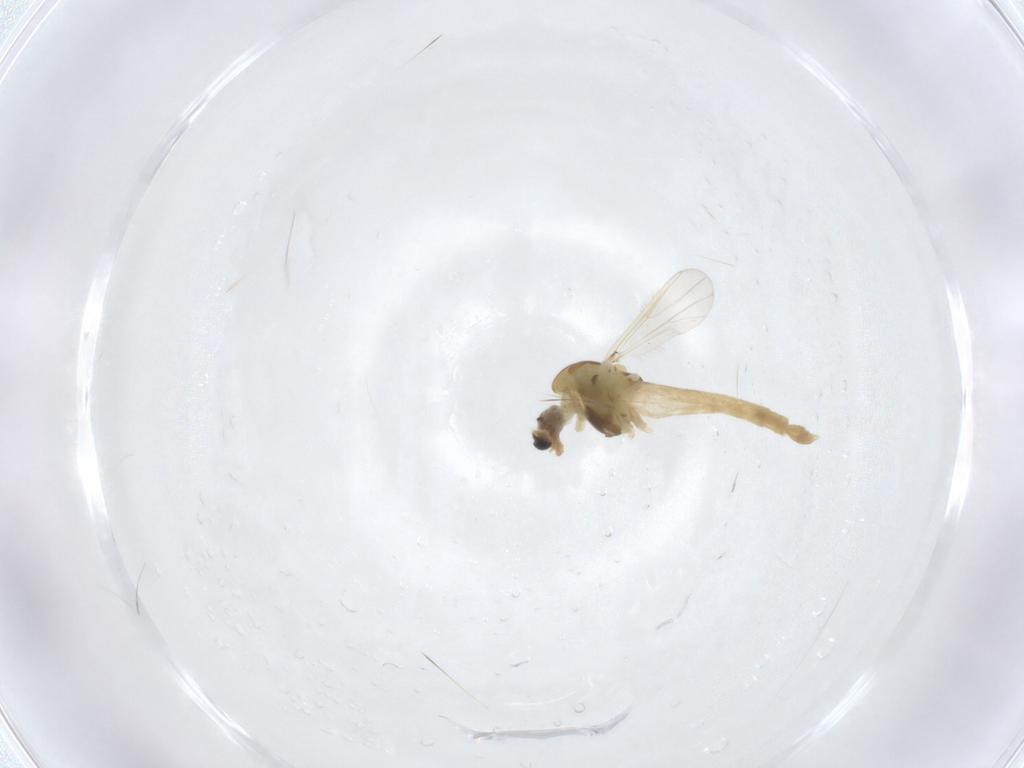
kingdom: Animalia
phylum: Arthropoda
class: Insecta
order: Diptera
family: Chironomidae
